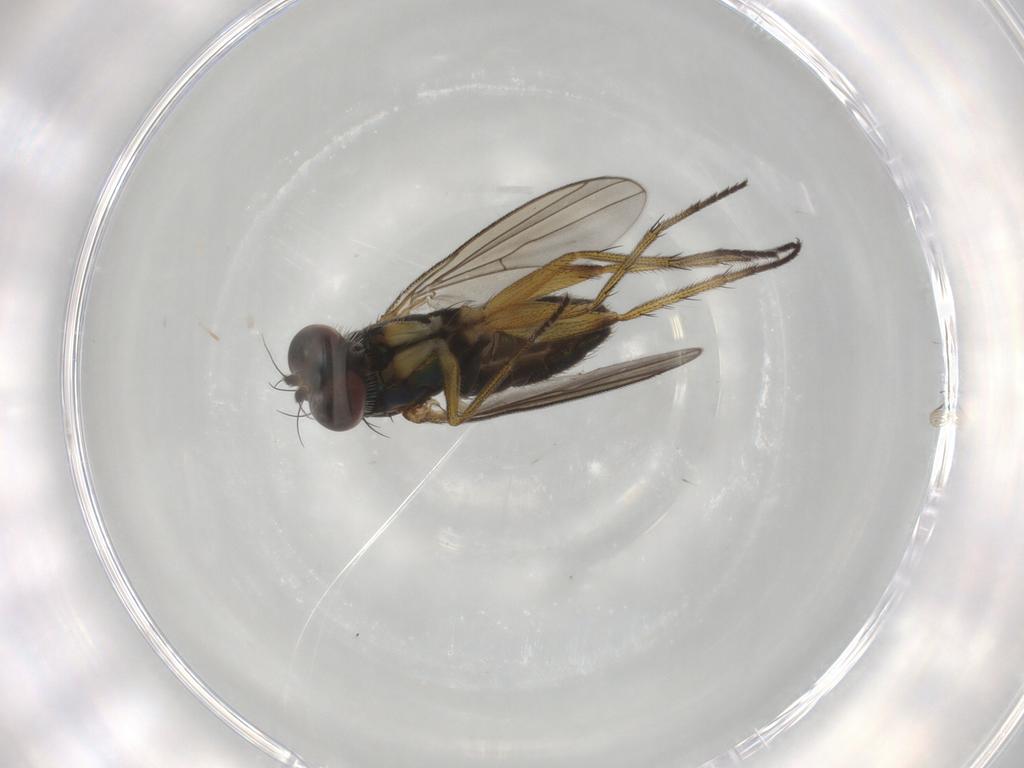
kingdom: Animalia
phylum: Arthropoda
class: Insecta
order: Diptera
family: Dolichopodidae
